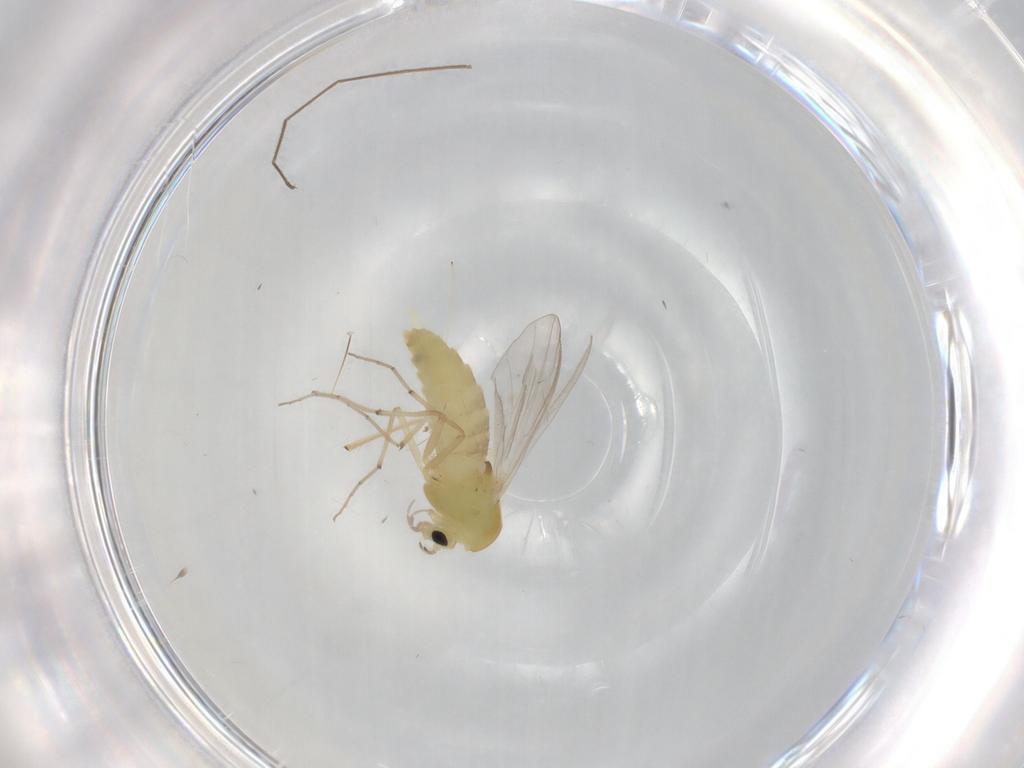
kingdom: Animalia
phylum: Arthropoda
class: Insecta
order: Diptera
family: Chironomidae
